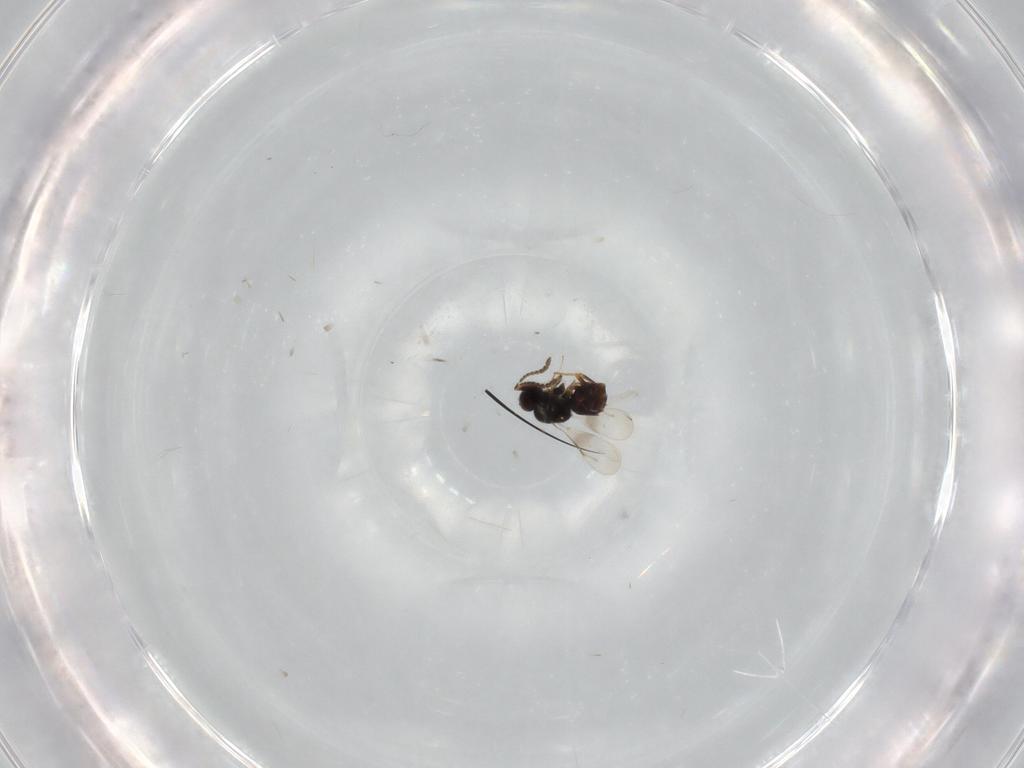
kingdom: Animalia
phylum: Arthropoda
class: Insecta
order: Hymenoptera
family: Scelionidae
